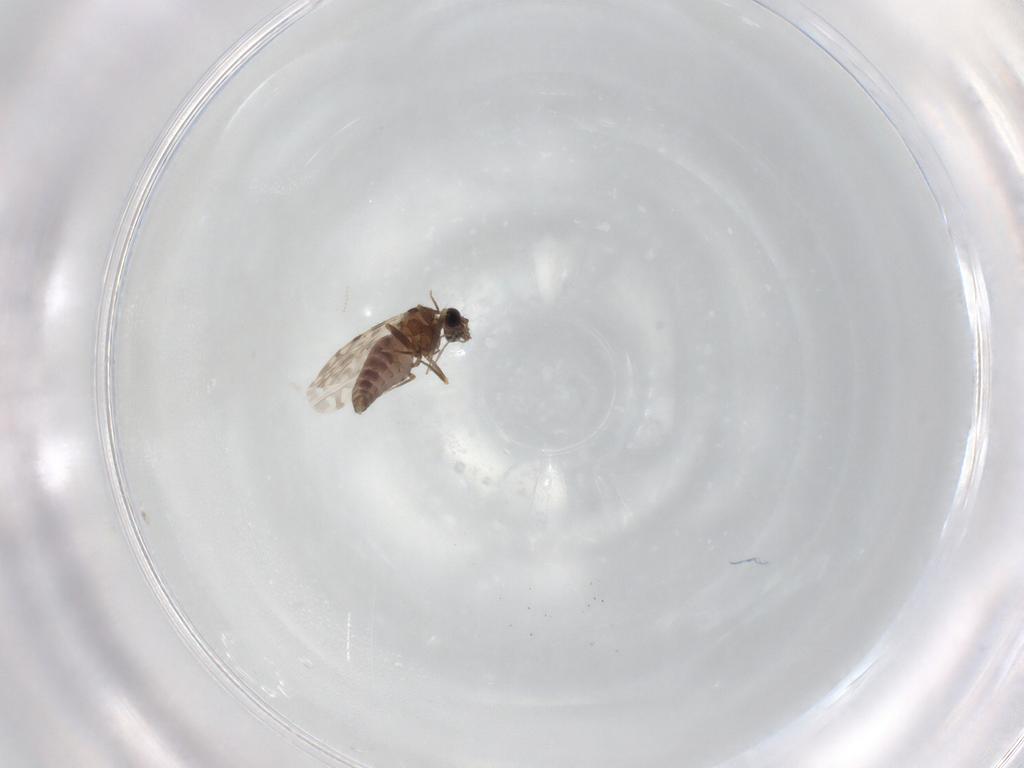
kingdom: Animalia
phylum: Arthropoda
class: Insecta
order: Diptera
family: Ceratopogonidae
